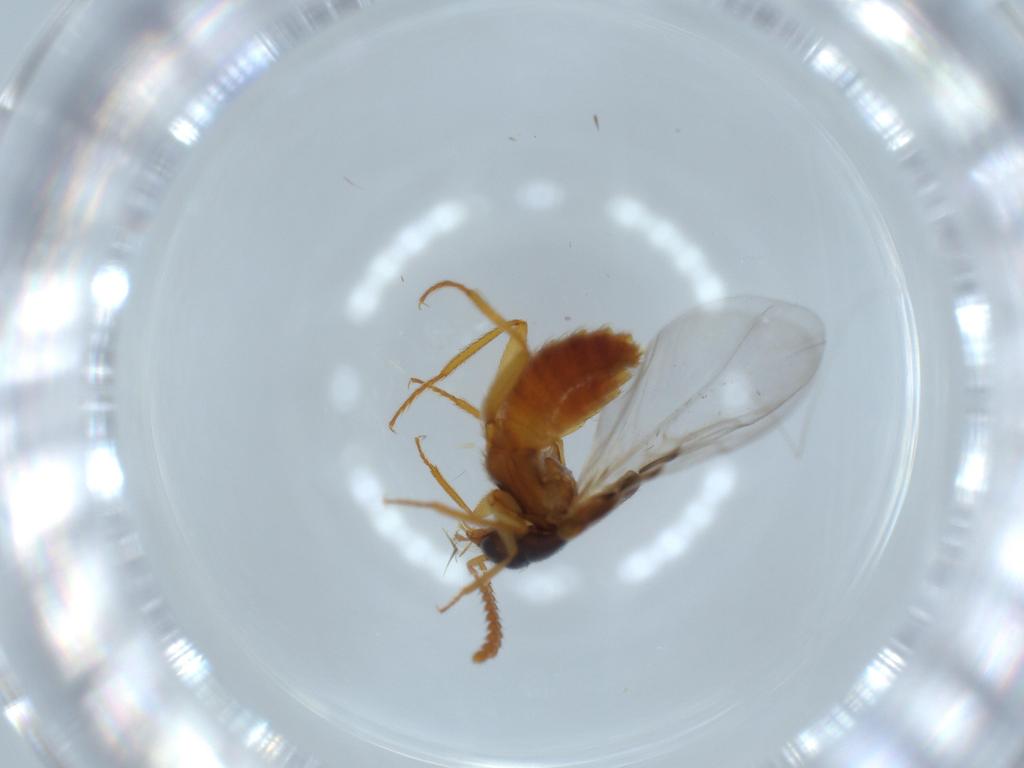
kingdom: Animalia
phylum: Arthropoda
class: Insecta
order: Coleoptera
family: Staphylinidae
